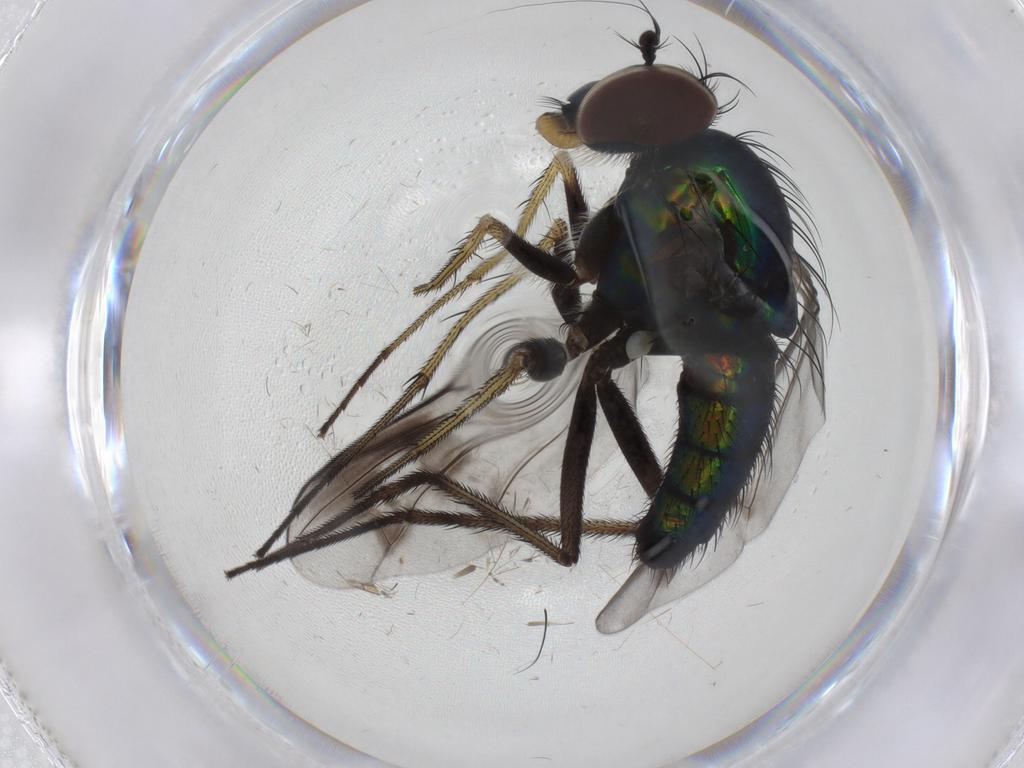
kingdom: Animalia
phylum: Arthropoda
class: Insecta
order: Diptera
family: Dolichopodidae
